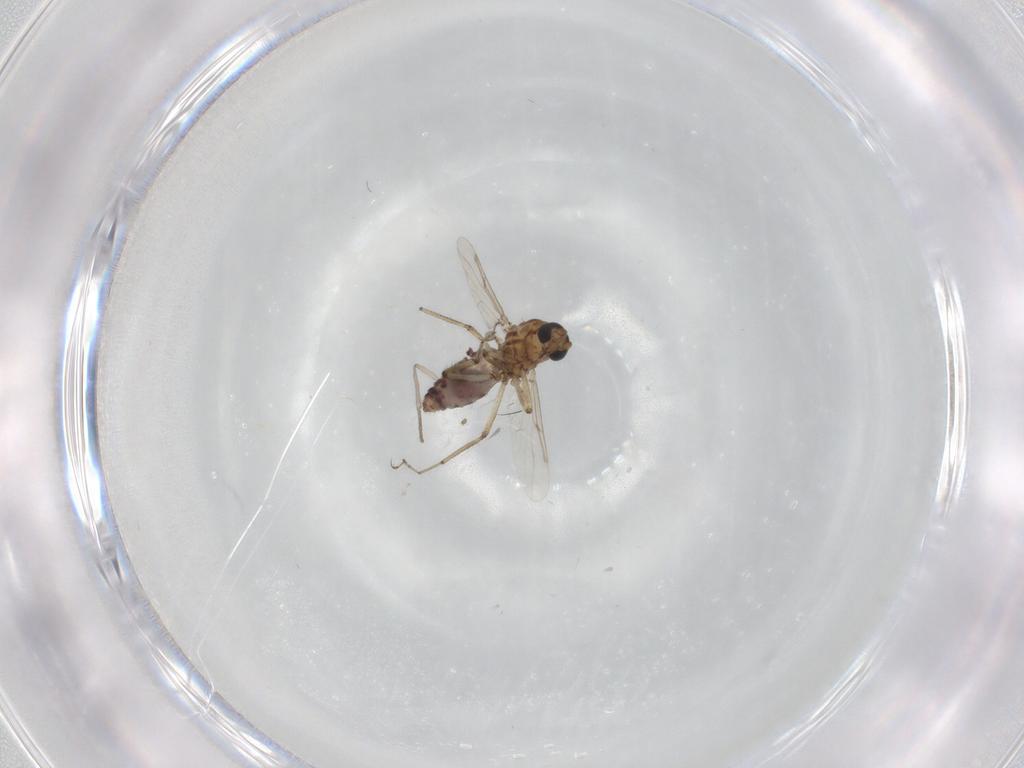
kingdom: Animalia
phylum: Arthropoda
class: Insecta
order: Diptera
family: Ceratopogonidae
